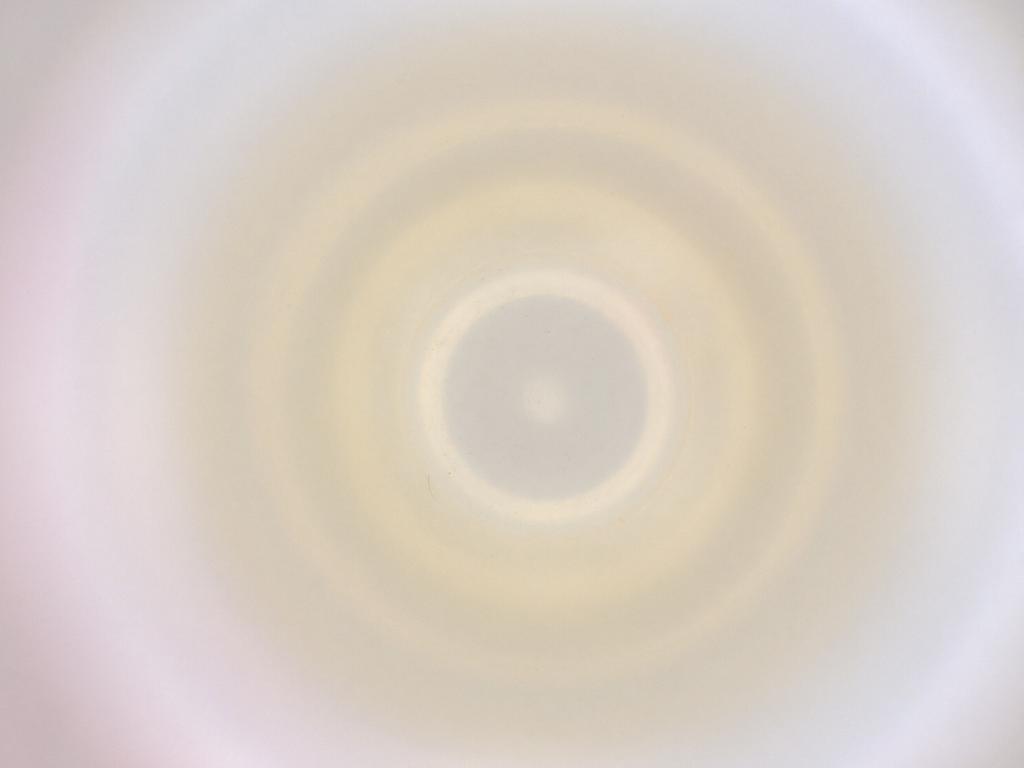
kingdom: Animalia
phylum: Arthropoda
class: Insecta
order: Diptera
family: Cecidomyiidae
